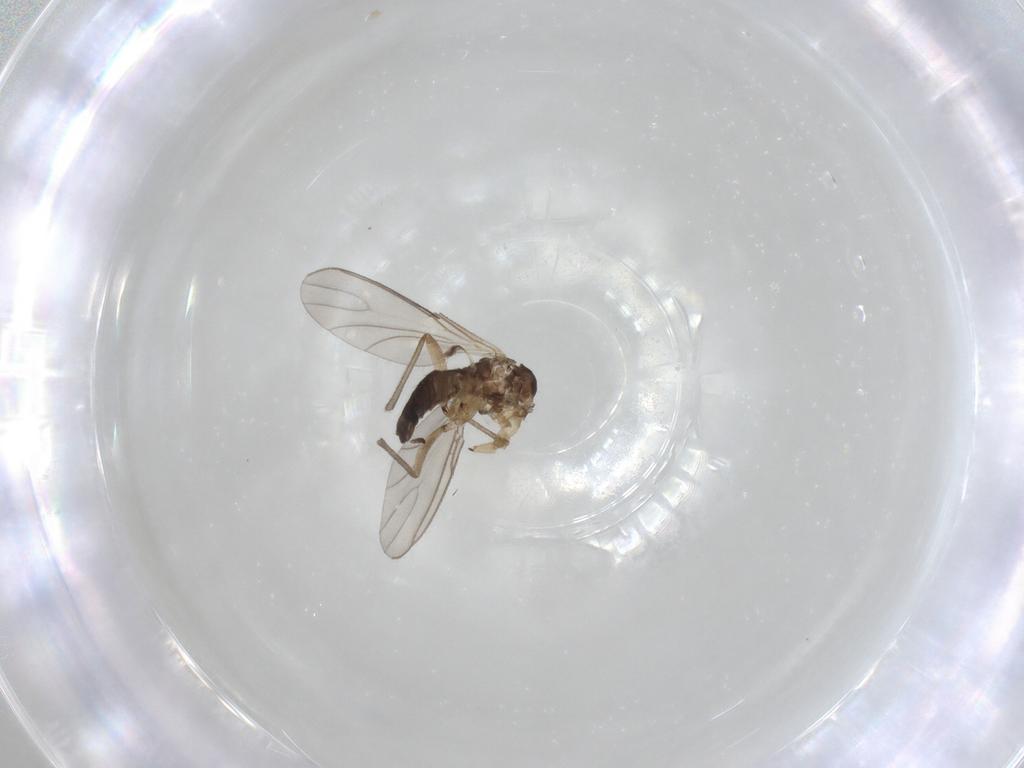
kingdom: Animalia
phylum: Arthropoda
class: Insecta
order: Diptera
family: Sciaridae
